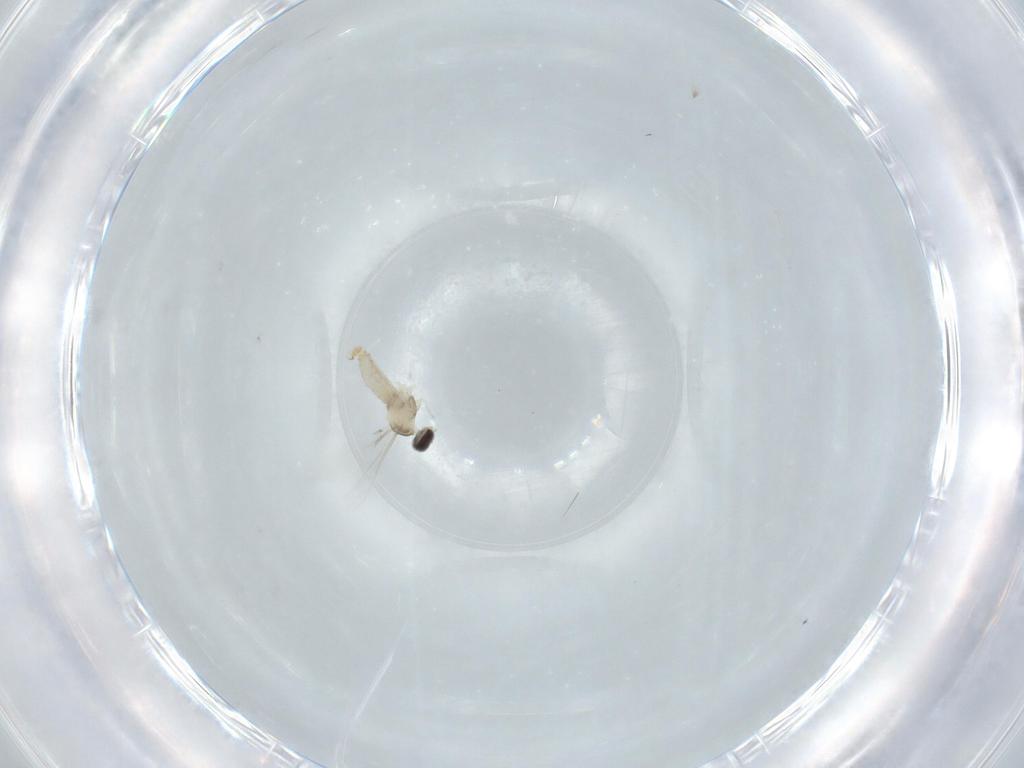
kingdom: Animalia
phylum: Arthropoda
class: Insecta
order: Diptera
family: Cecidomyiidae
